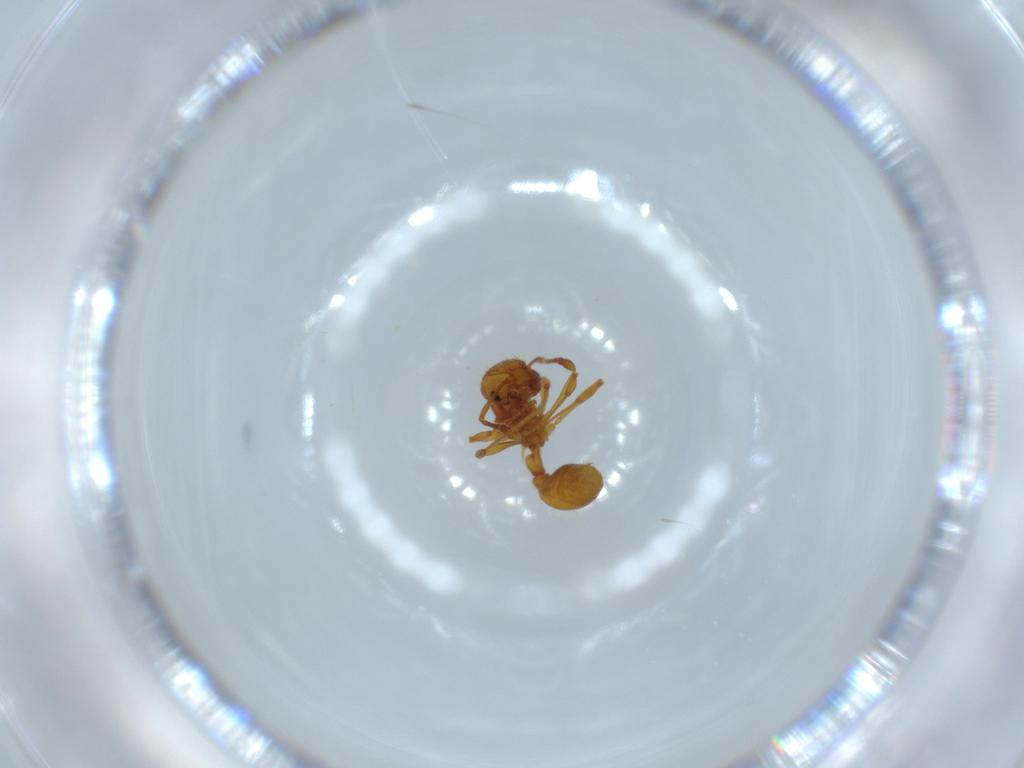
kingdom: Animalia
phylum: Arthropoda
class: Insecta
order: Hymenoptera
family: Formicidae
